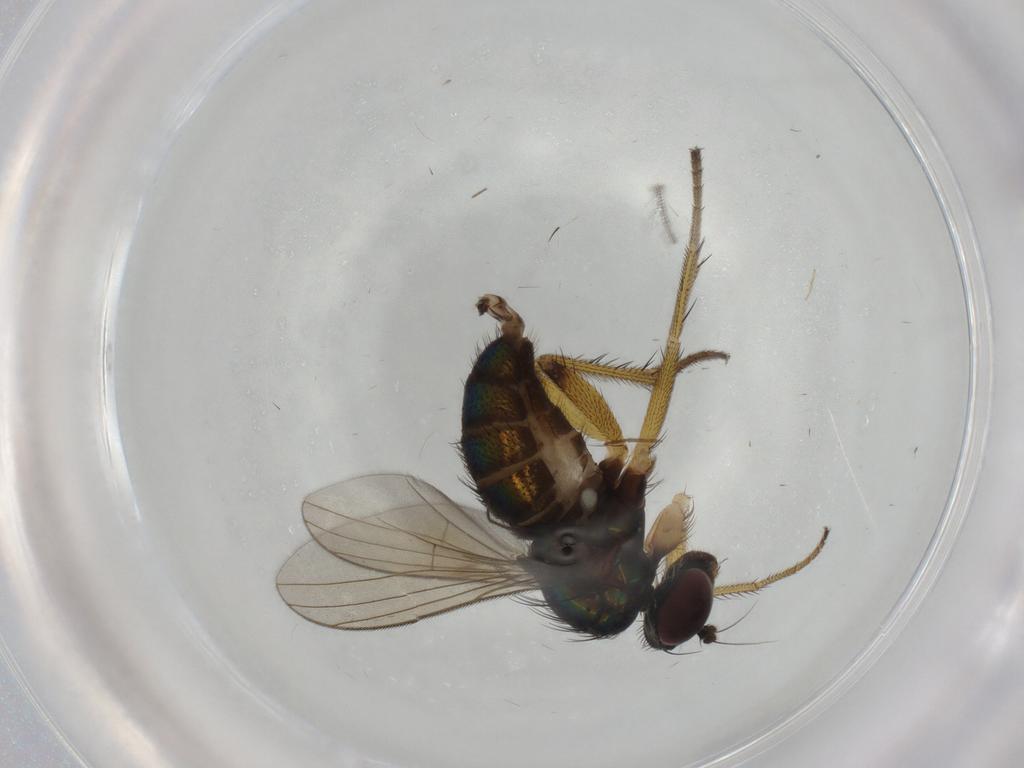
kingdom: Animalia
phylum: Arthropoda
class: Insecta
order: Diptera
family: Dolichopodidae
